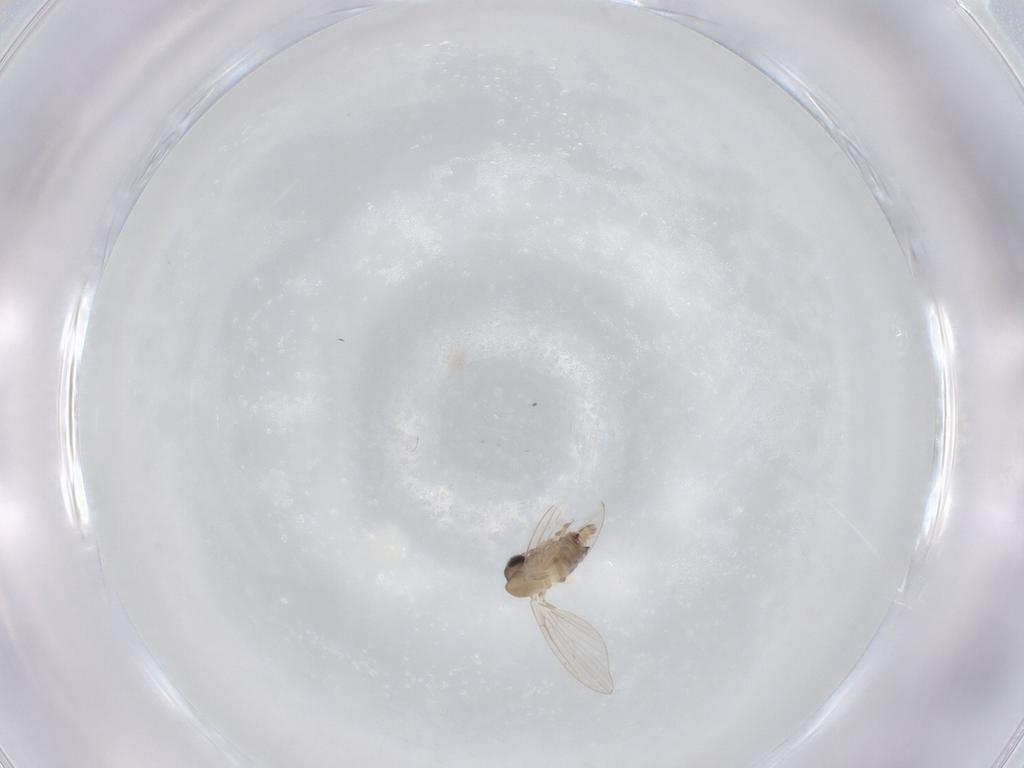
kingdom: Animalia
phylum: Arthropoda
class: Insecta
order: Diptera
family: Psychodidae
